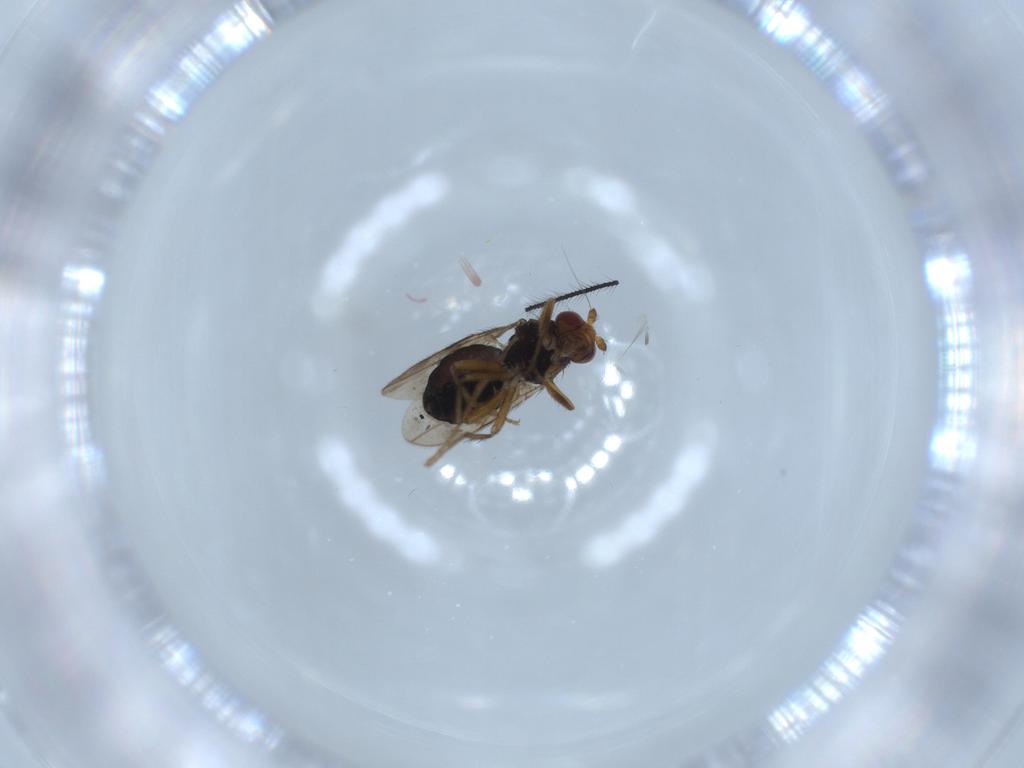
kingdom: Animalia
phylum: Arthropoda
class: Insecta
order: Diptera
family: Sphaeroceridae
